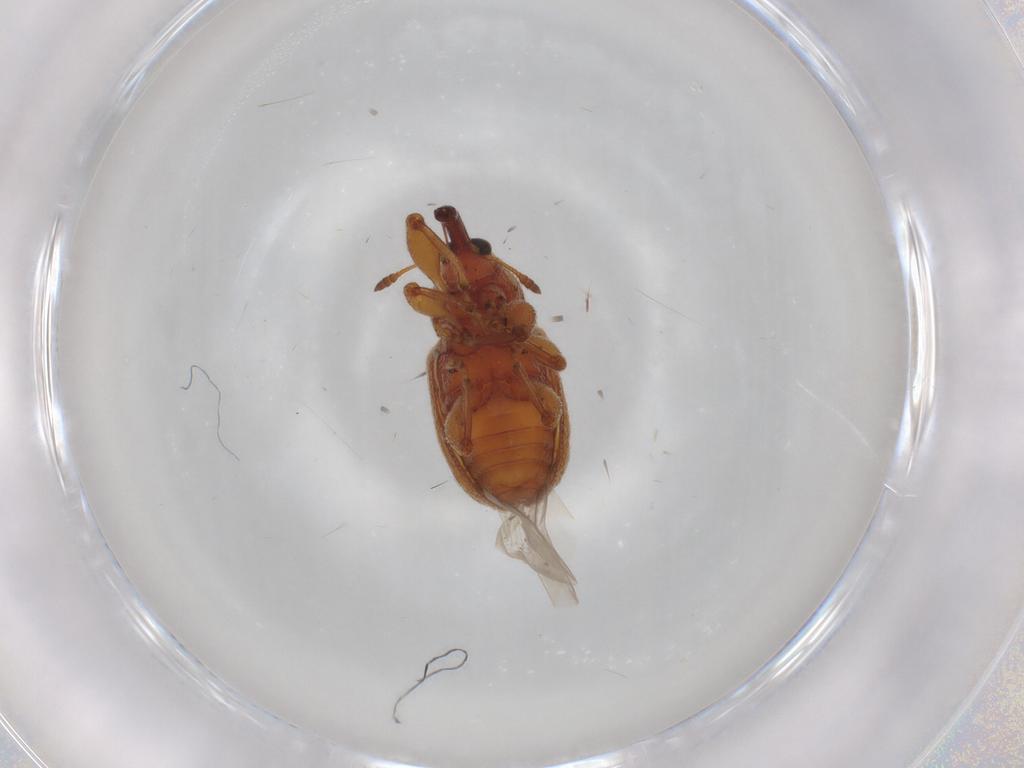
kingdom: Animalia
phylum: Arthropoda
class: Insecta
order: Coleoptera
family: Curculionidae
